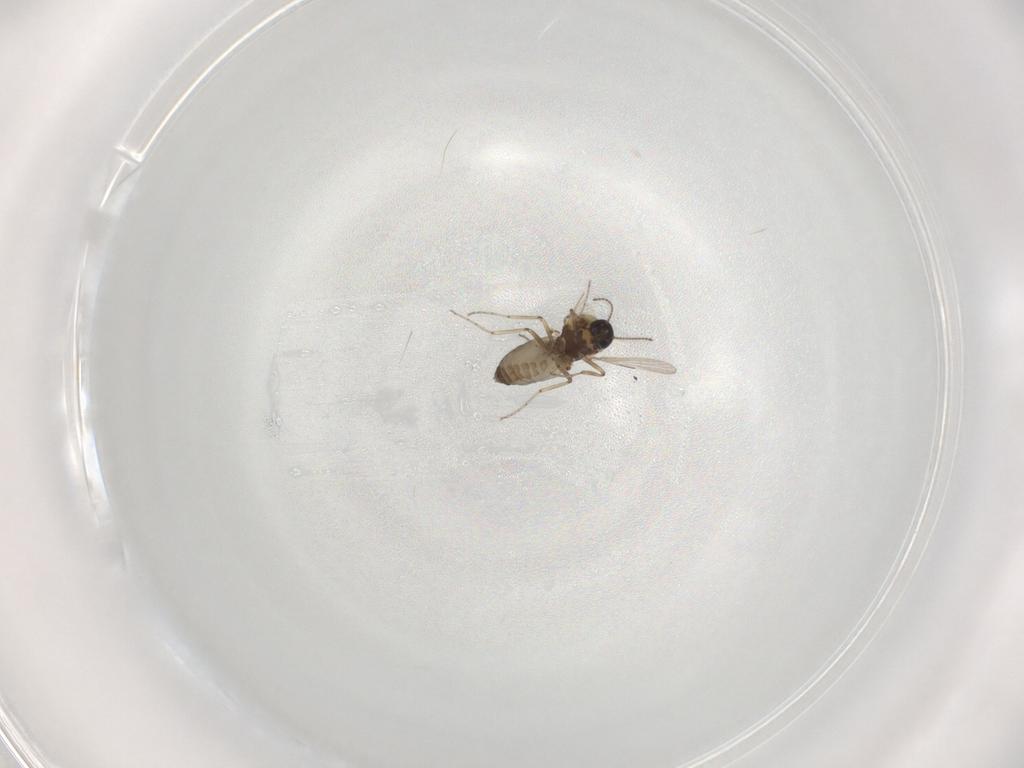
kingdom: Animalia
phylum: Arthropoda
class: Insecta
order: Diptera
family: Ceratopogonidae
